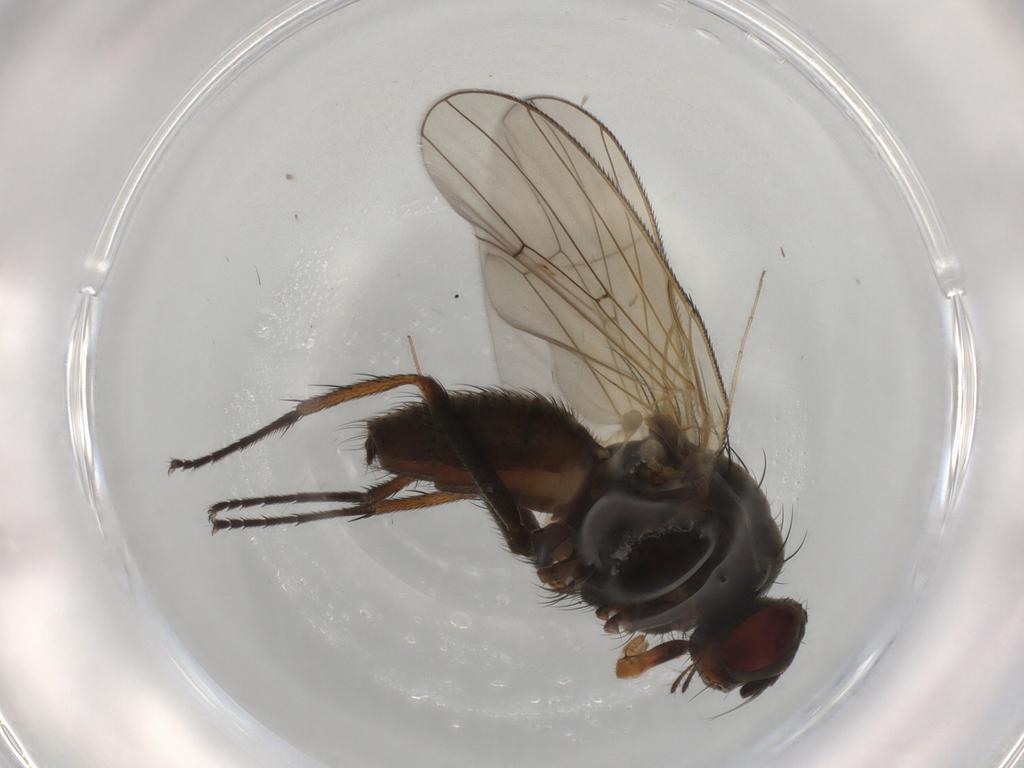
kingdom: Animalia
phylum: Arthropoda
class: Insecta
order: Diptera
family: Anthomyiidae
